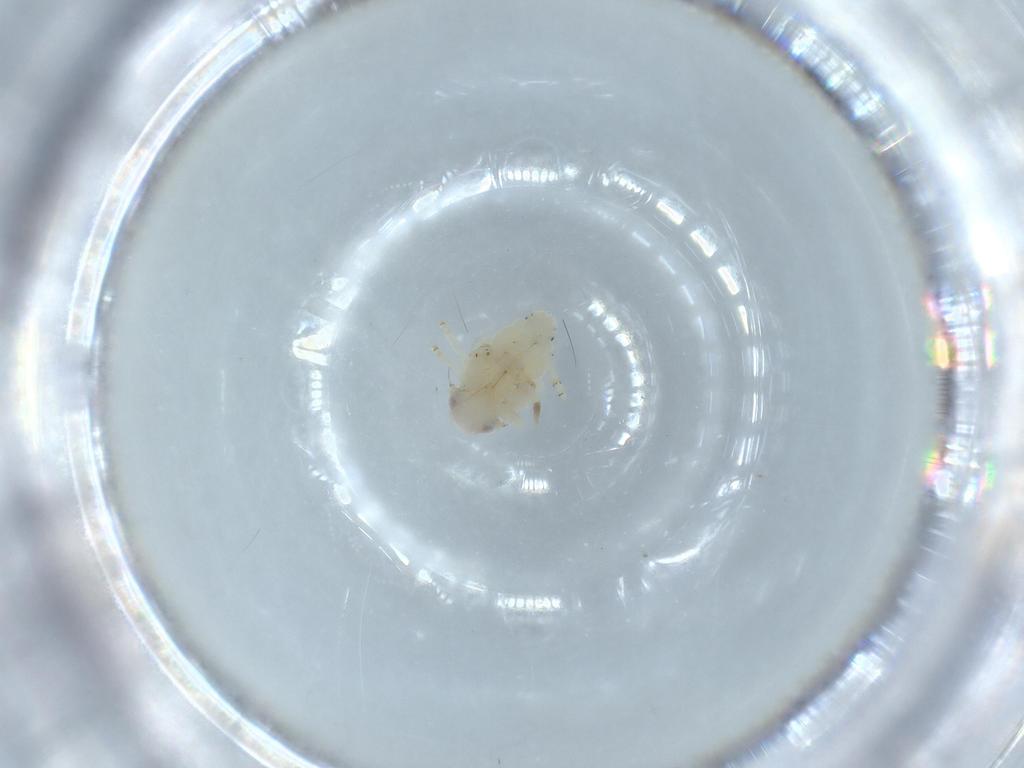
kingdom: Animalia
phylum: Arthropoda
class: Insecta
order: Hemiptera
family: Nogodinidae
